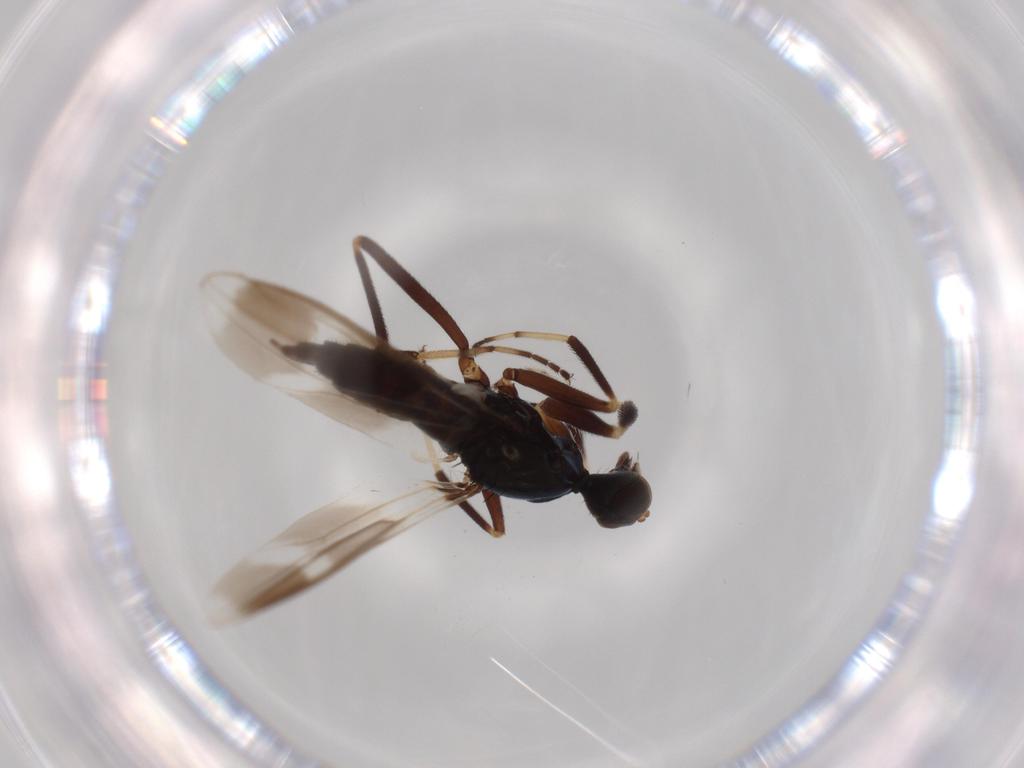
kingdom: Animalia
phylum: Arthropoda
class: Insecta
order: Diptera
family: Hybotidae
